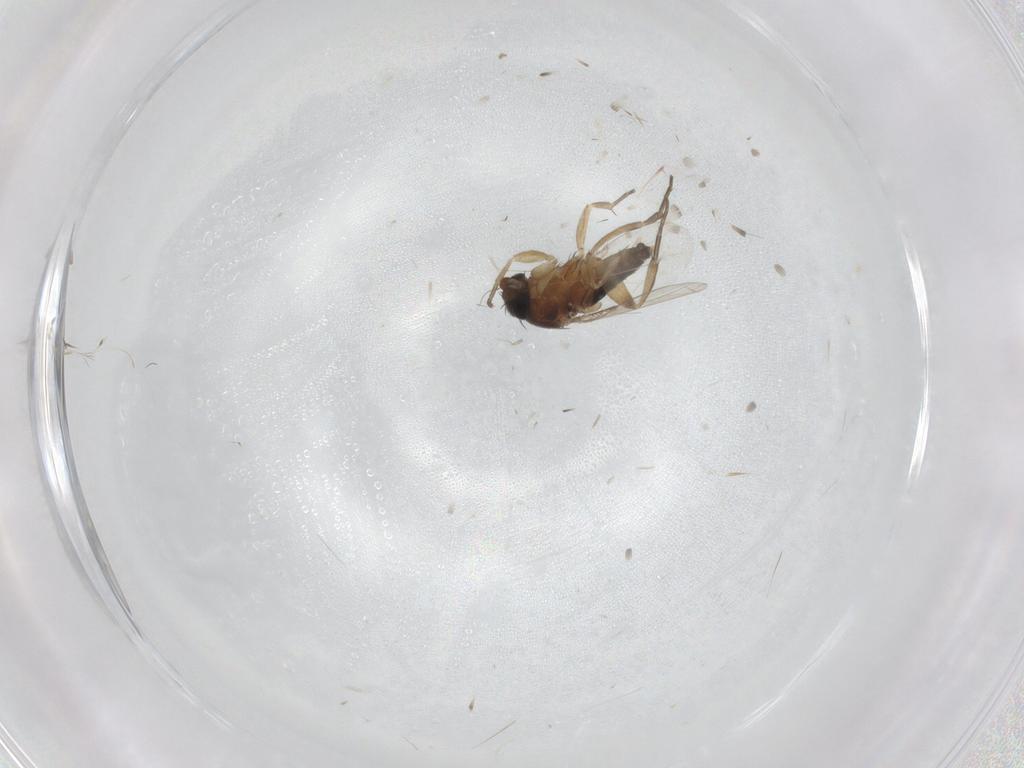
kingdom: Animalia
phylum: Arthropoda
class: Insecta
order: Diptera
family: Phoridae
